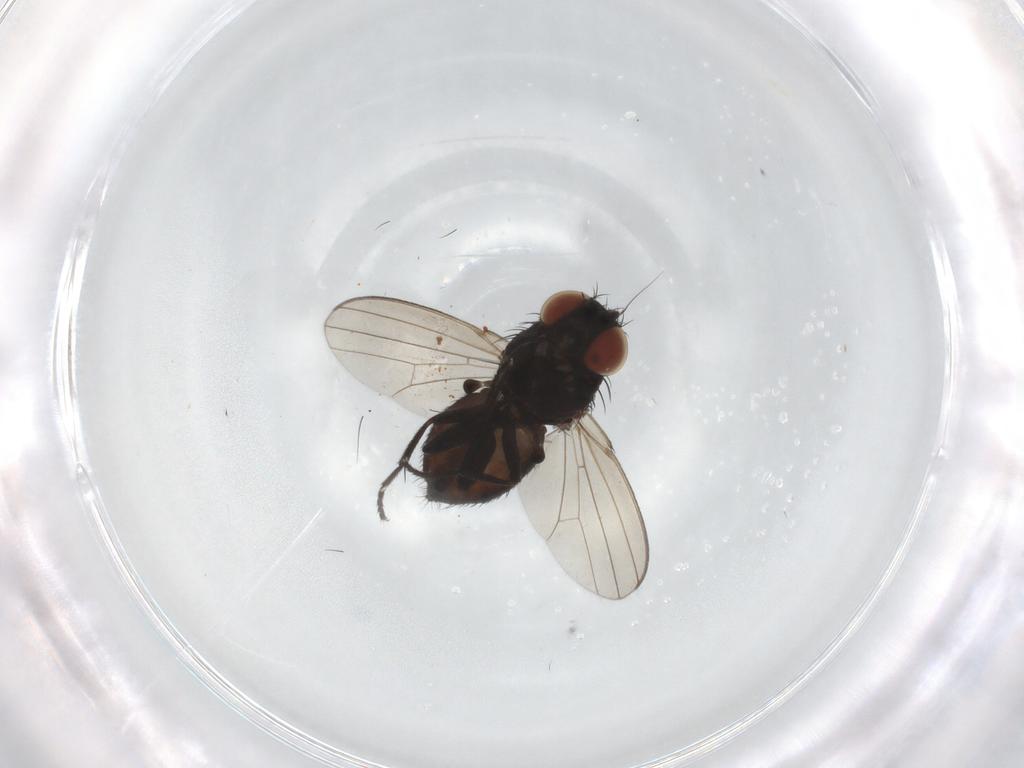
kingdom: Animalia
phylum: Arthropoda
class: Insecta
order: Diptera
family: Milichiidae
